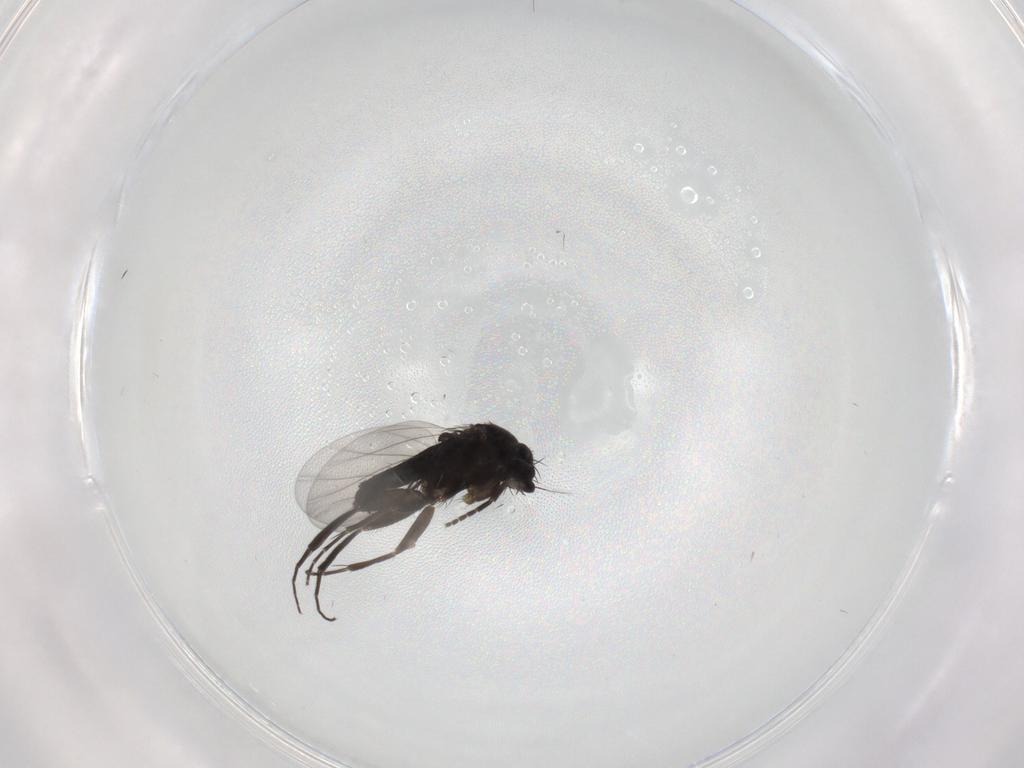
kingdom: Animalia
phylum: Arthropoda
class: Insecta
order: Diptera
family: Phoridae
